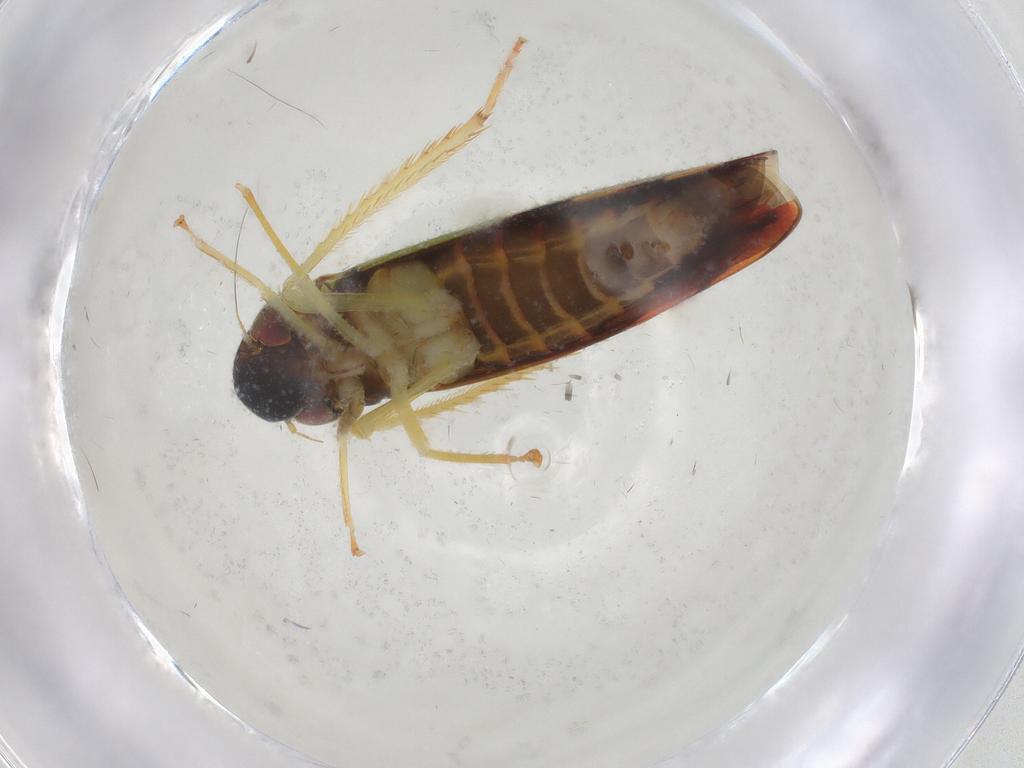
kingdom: Animalia
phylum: Arthropoda
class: Insecta
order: Hemiptera
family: Cicadellidae
